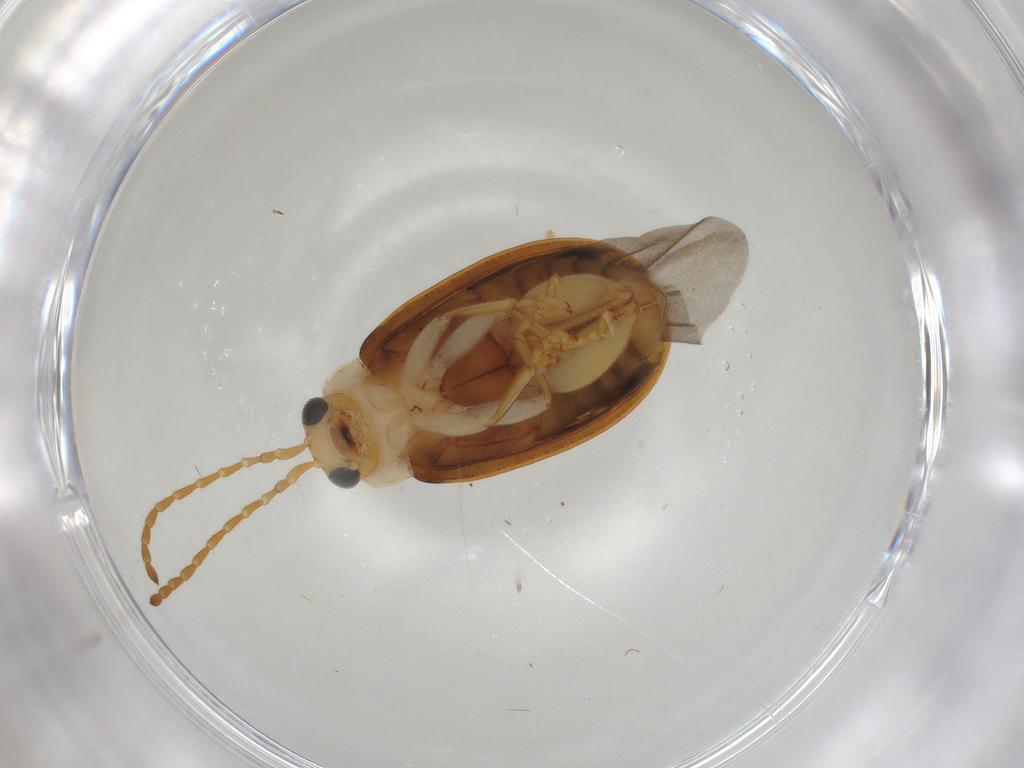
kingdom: Animalia
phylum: Arthropoda
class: Insecta
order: Coleoptera
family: Chrysomelidae
